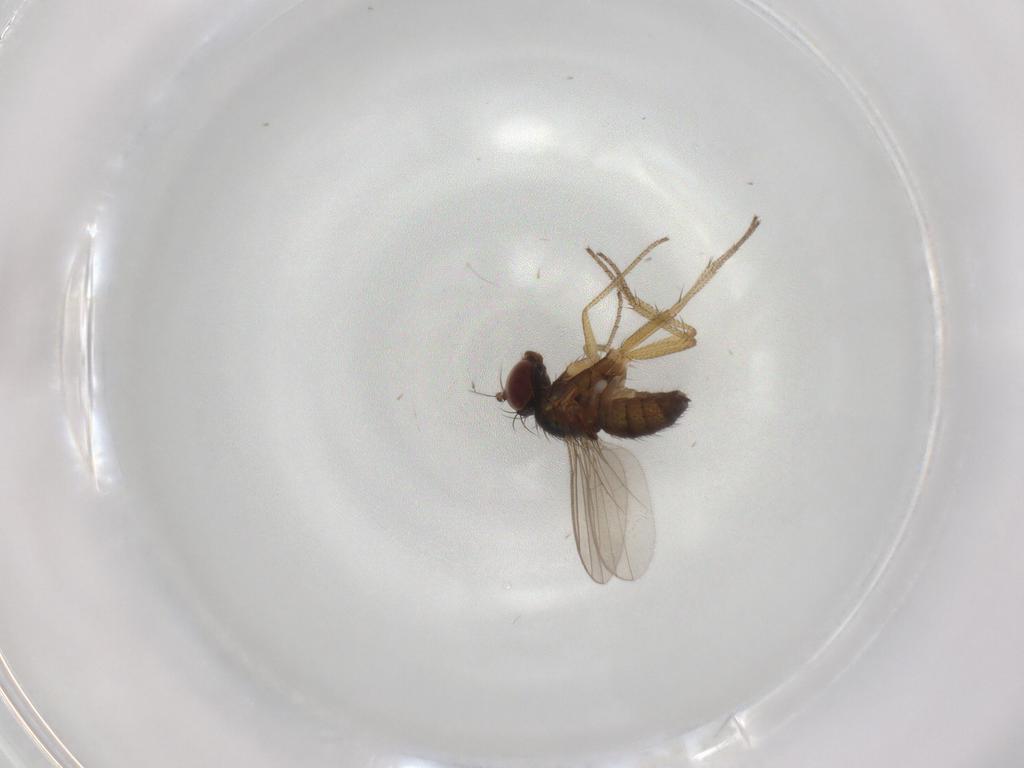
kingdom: Animalia
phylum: Arthropoda
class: Insecta
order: Diptera
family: Dolichopodidae
